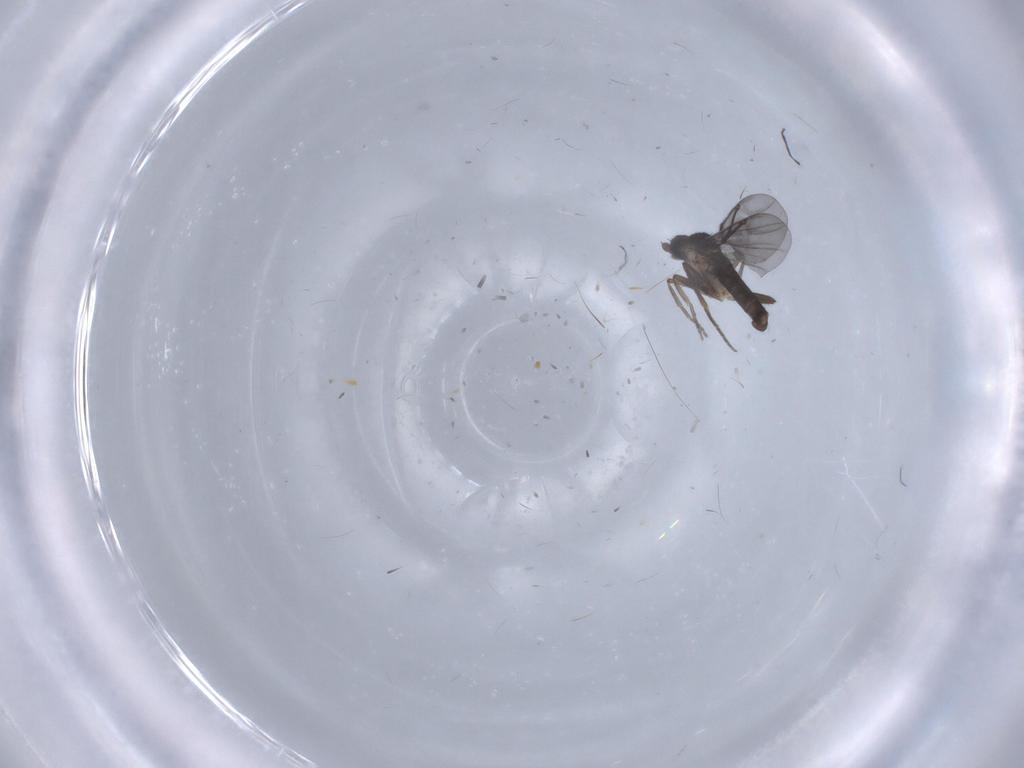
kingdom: Animalia
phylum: Arthropoda
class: Insecta
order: Diptera
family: Phoridae
